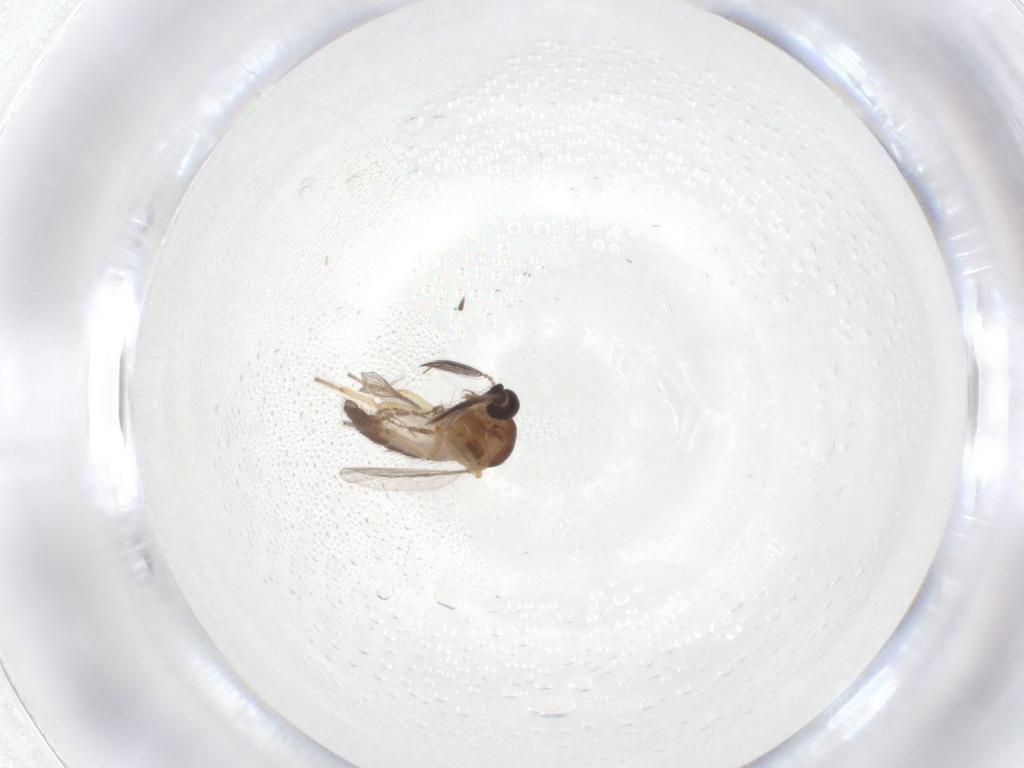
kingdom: Animalia
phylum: Arthropoda
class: Insecta
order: Diptera
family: Ceratopogonidae
